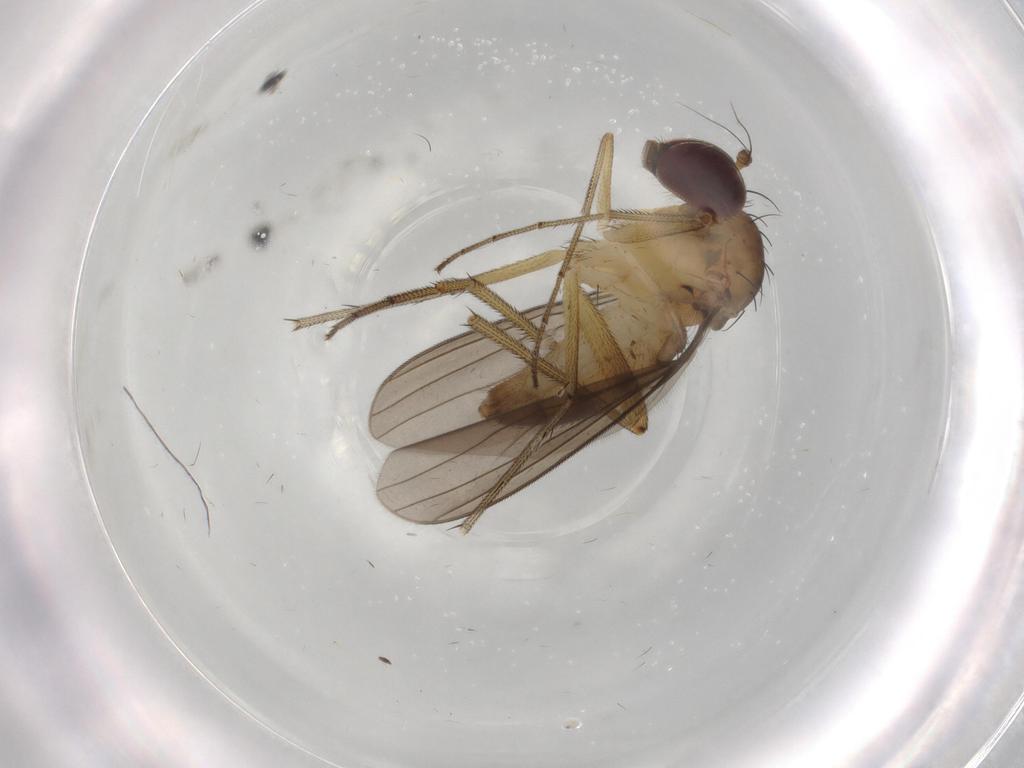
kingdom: Animalia
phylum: Arthropoda
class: Insecta
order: Diptera
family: Dolichopodidae
